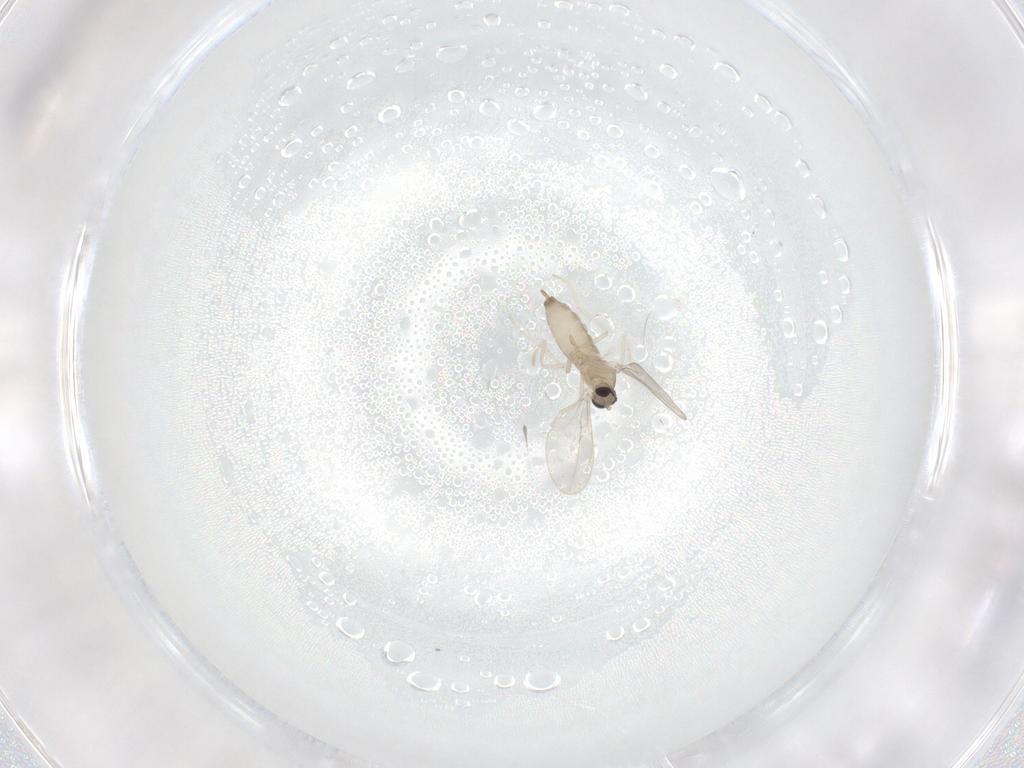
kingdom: Animalia
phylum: Arthropoda
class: Insecta
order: Diptera
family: Cecidomyiidae
